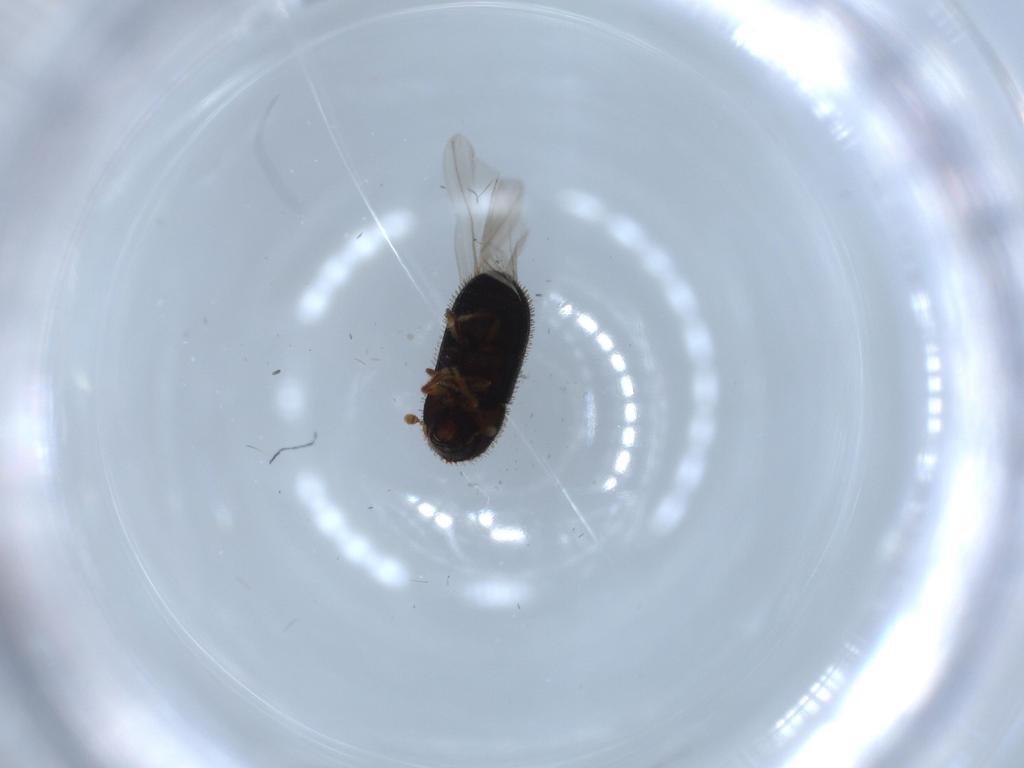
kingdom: Animalia
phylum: Arthropoda
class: Insecta
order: Coleoptera
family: Curculionidae
